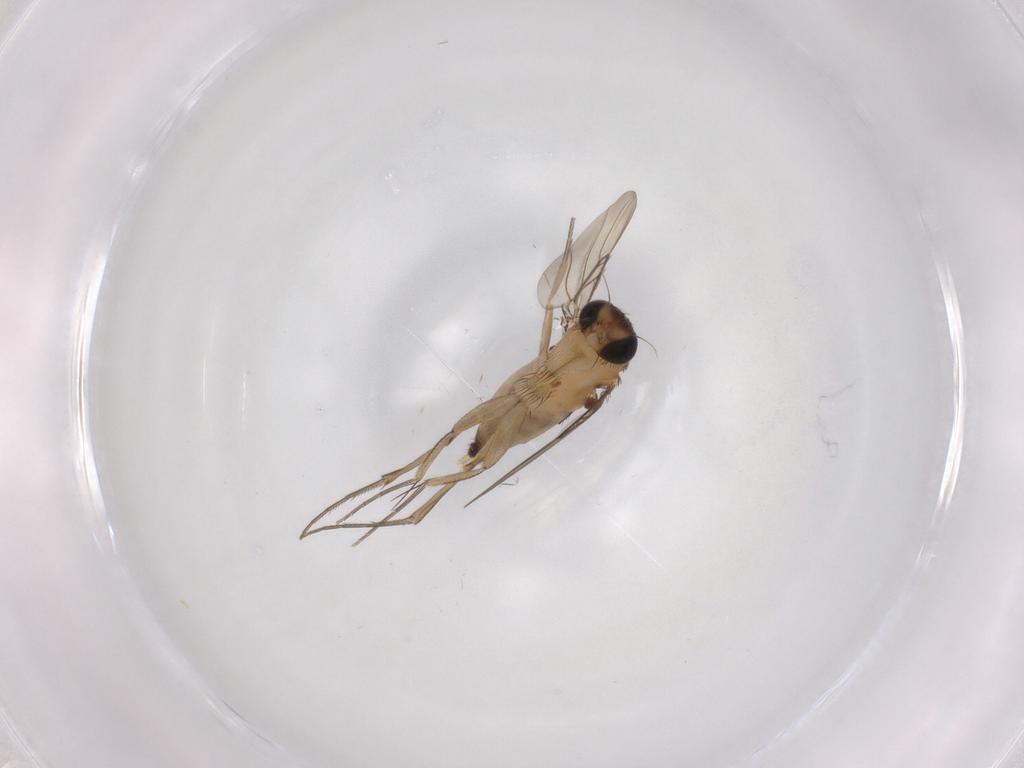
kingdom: Animalia
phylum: Arthropoda
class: Insecta
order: Diptera
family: Phoridae
